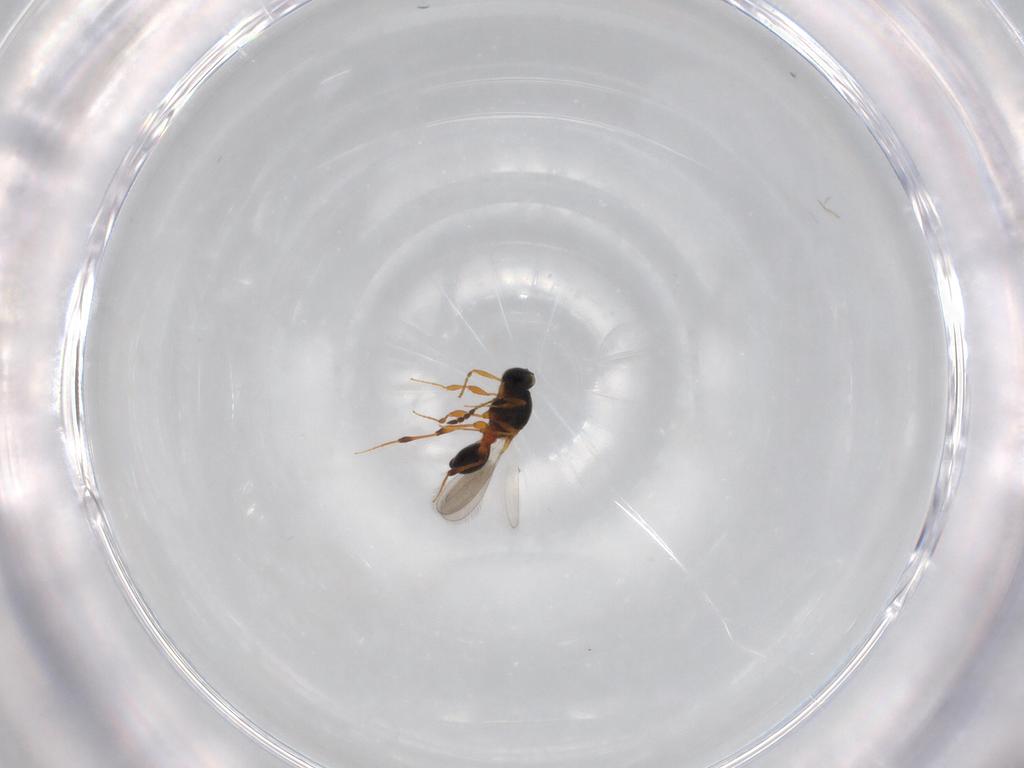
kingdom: Animalia
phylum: Arthropoda
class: Insecta
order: Hymenoptera
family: Platygastridae
